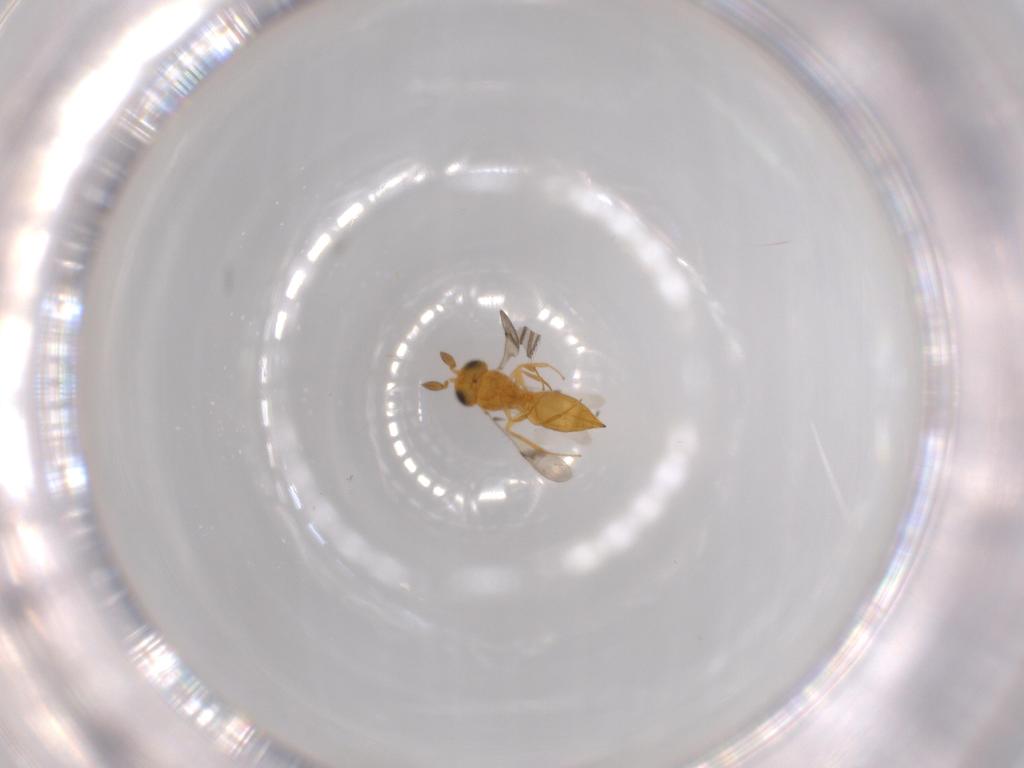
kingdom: Animalia
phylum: Arthropoda
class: Insecta
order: Hymenoptera
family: Scelionidae
